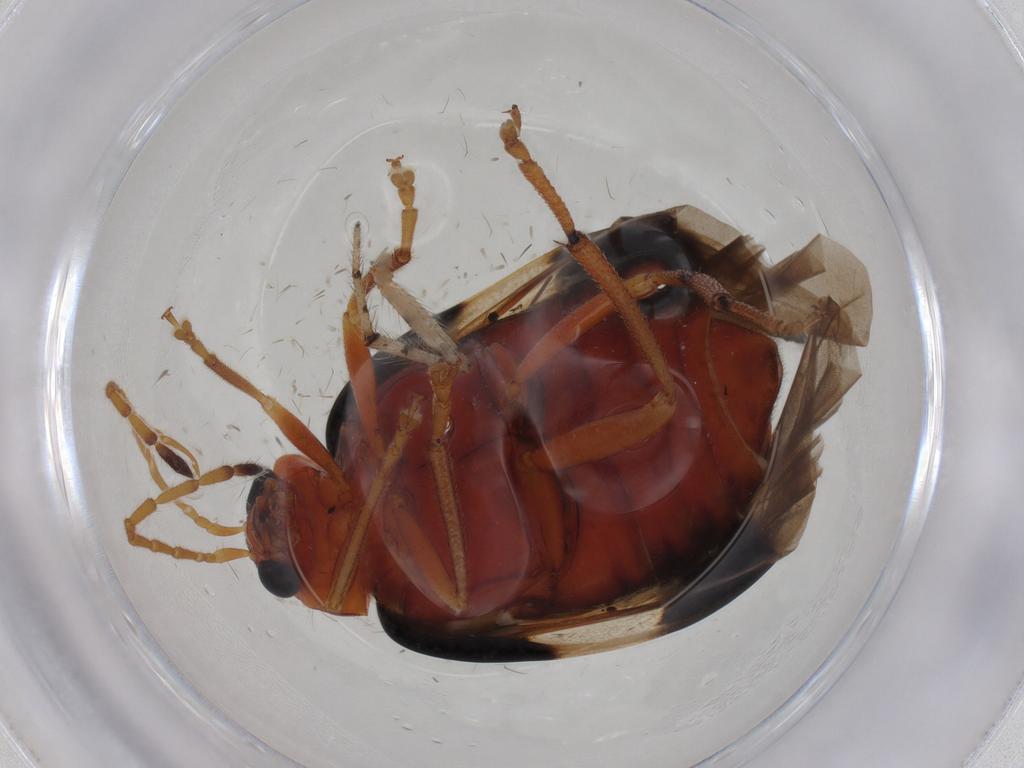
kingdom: Animalia
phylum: Arthropoda
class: Insecta
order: Coleoptera
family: Chrysomelidae
